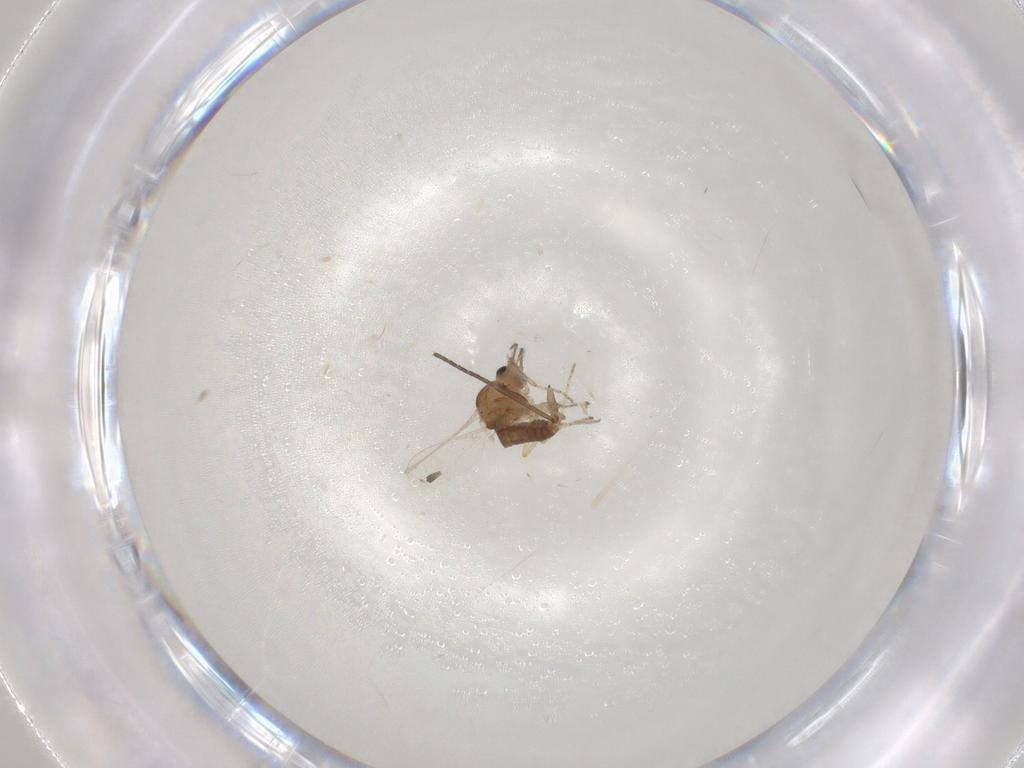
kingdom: Animalia
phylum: Arthropoda
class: Insecta
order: Diptera
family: Ceratopogonidae
